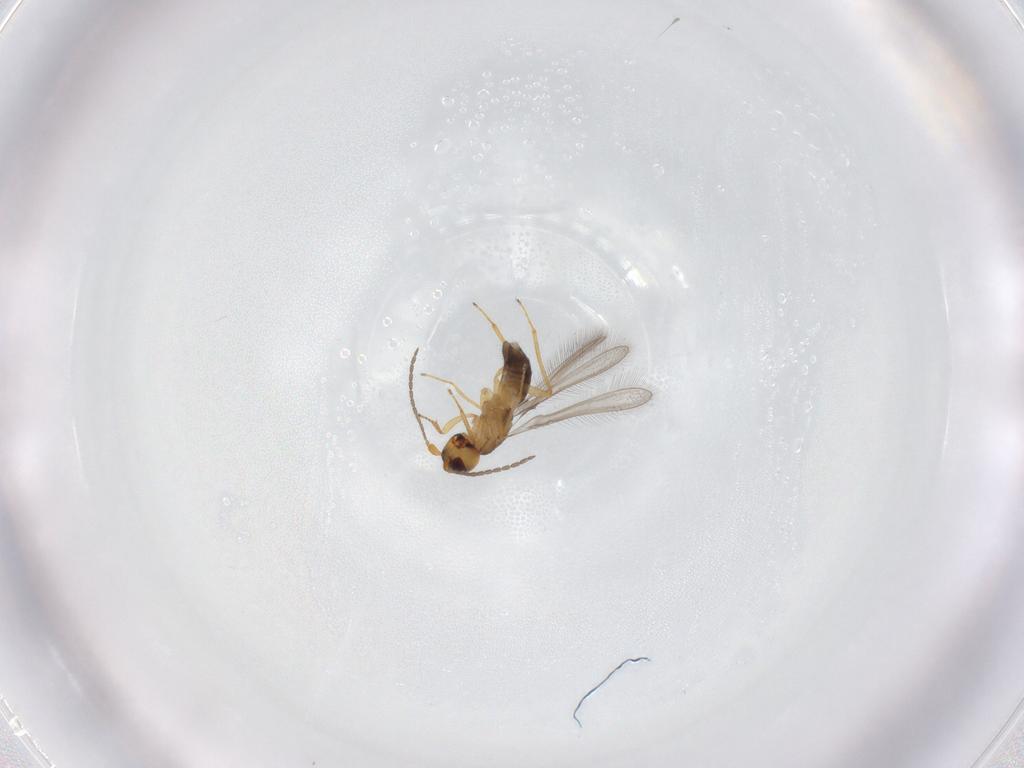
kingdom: Animalia
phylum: Arthropoda
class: Insecta
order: Hymenoptera
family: Mymaridae
